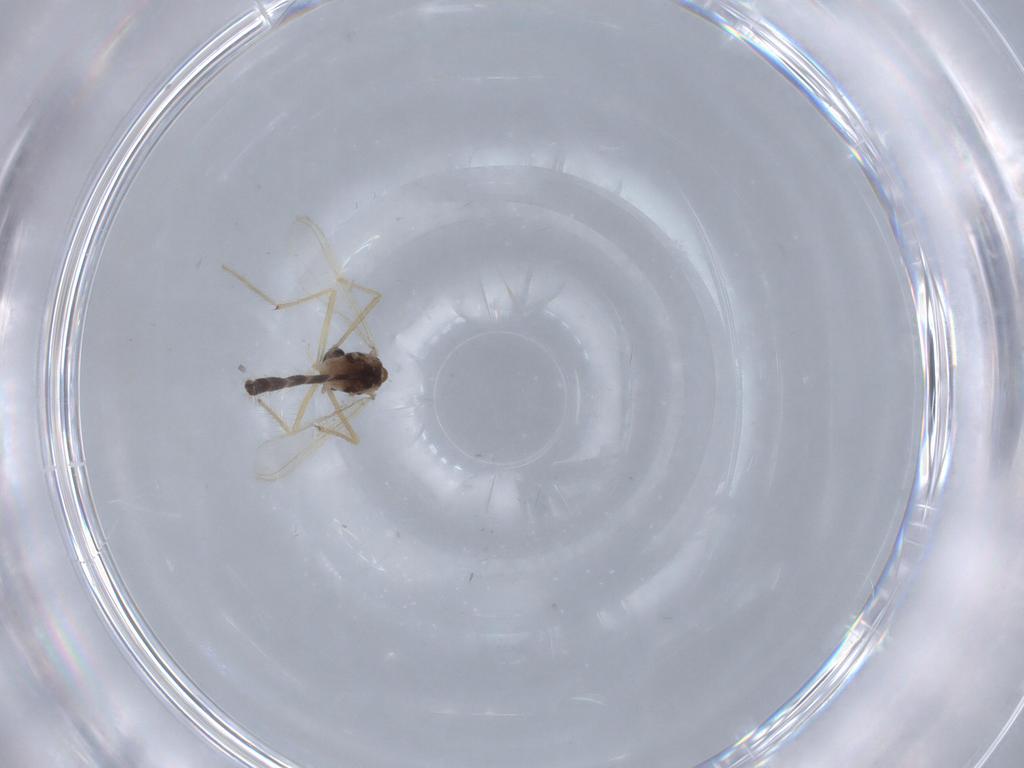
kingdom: Animalia
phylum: Arthropoda
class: Insecta
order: Diptera
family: Chironomidae
